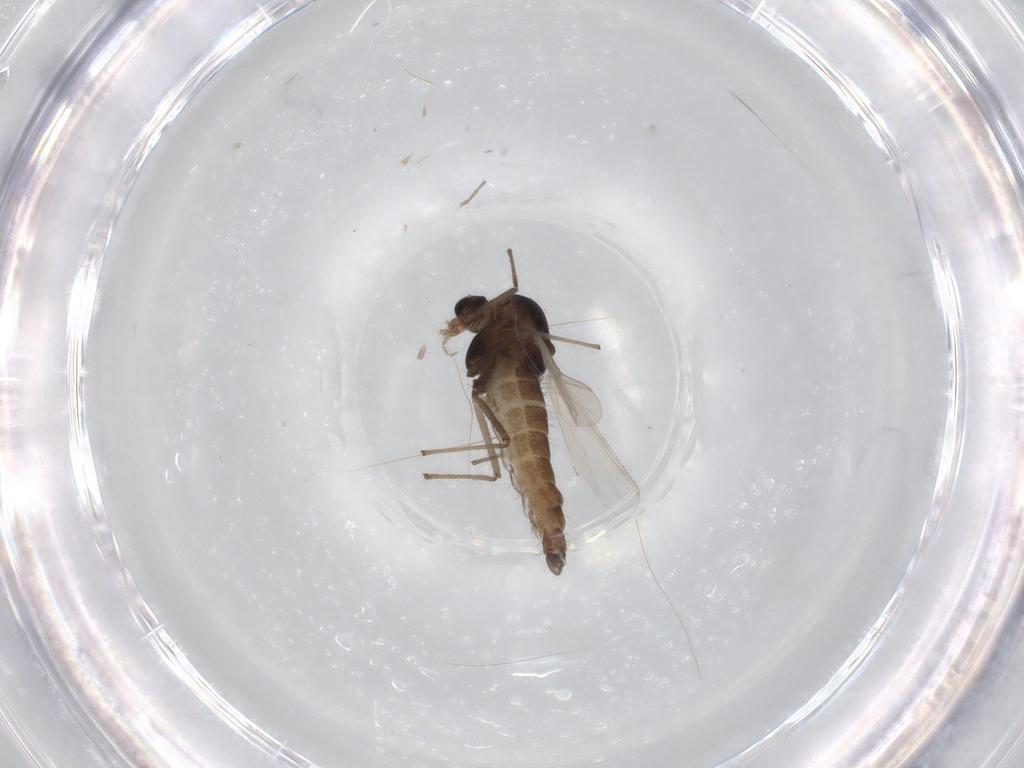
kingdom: Animalia
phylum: Arthropoda
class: Insecta
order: Diptera
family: Chironomidae
